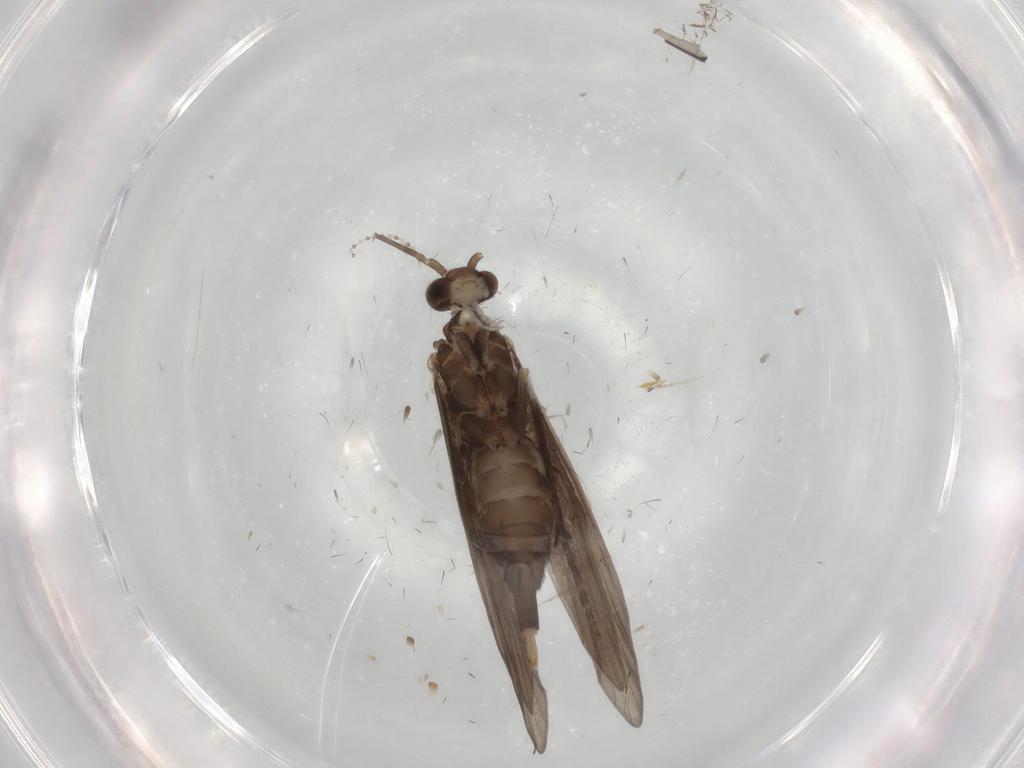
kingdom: Animalia
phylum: Arthropoda
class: Insecta
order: Trichoptera
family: Xiphocentronidae
